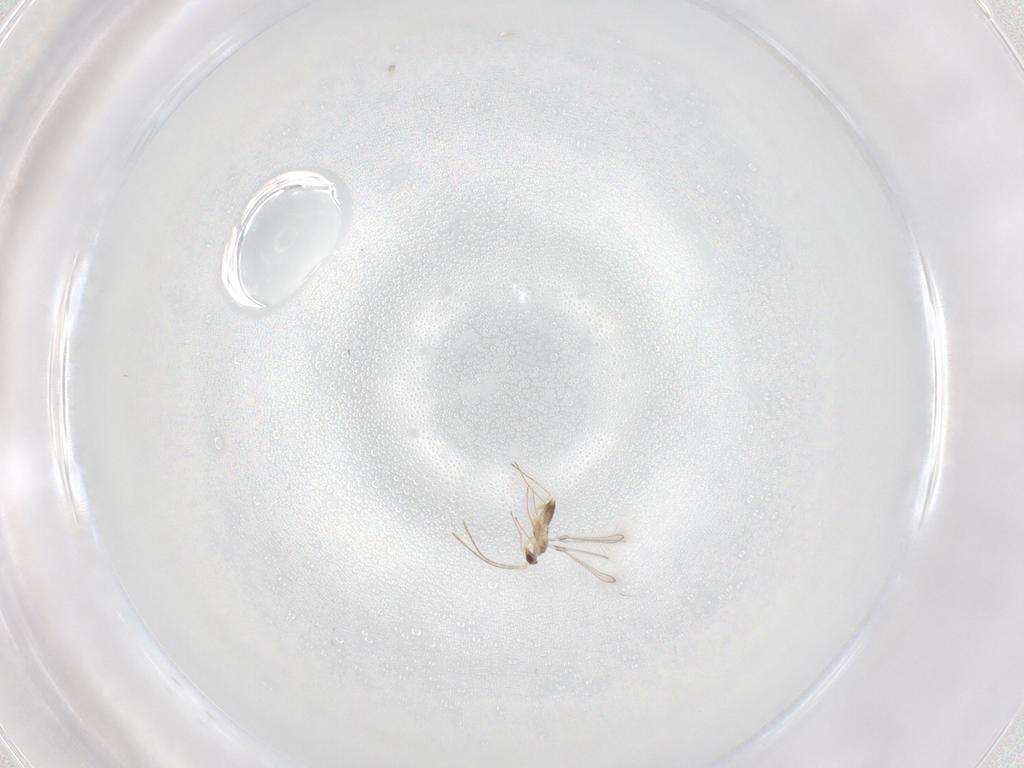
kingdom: Animalia
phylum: Arthropoda
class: Insecta
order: Hymenoptera
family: Mymaridae
